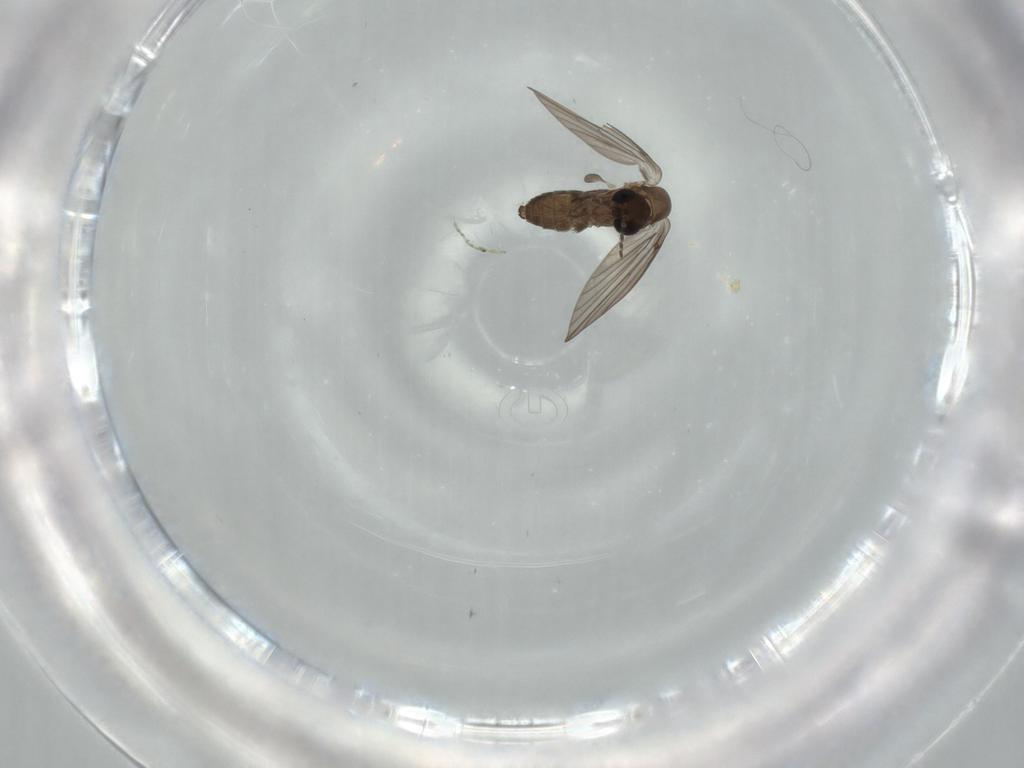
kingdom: Animalia
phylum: Arthropoda
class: Insecta
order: Diptera
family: Psychodidae
